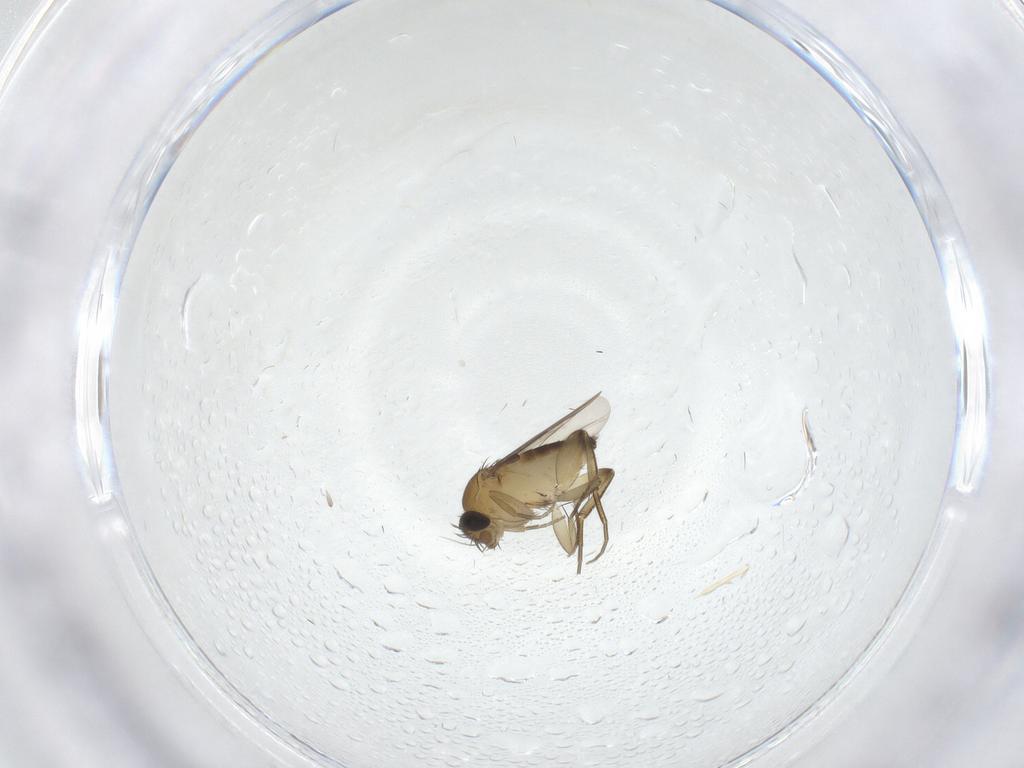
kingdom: Animalia
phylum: Arthropoda
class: Insecta
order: Diptera
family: Phoridae
